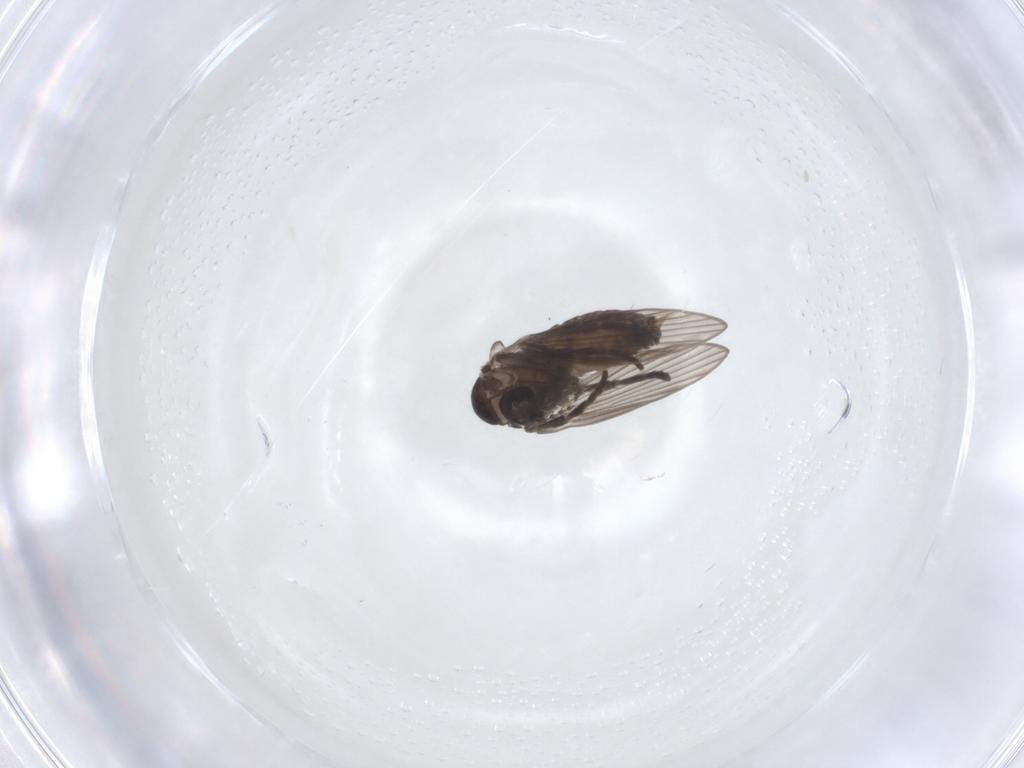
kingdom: Animalia
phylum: Arthropoda
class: Insecta
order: Diptera
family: Psychodidae
